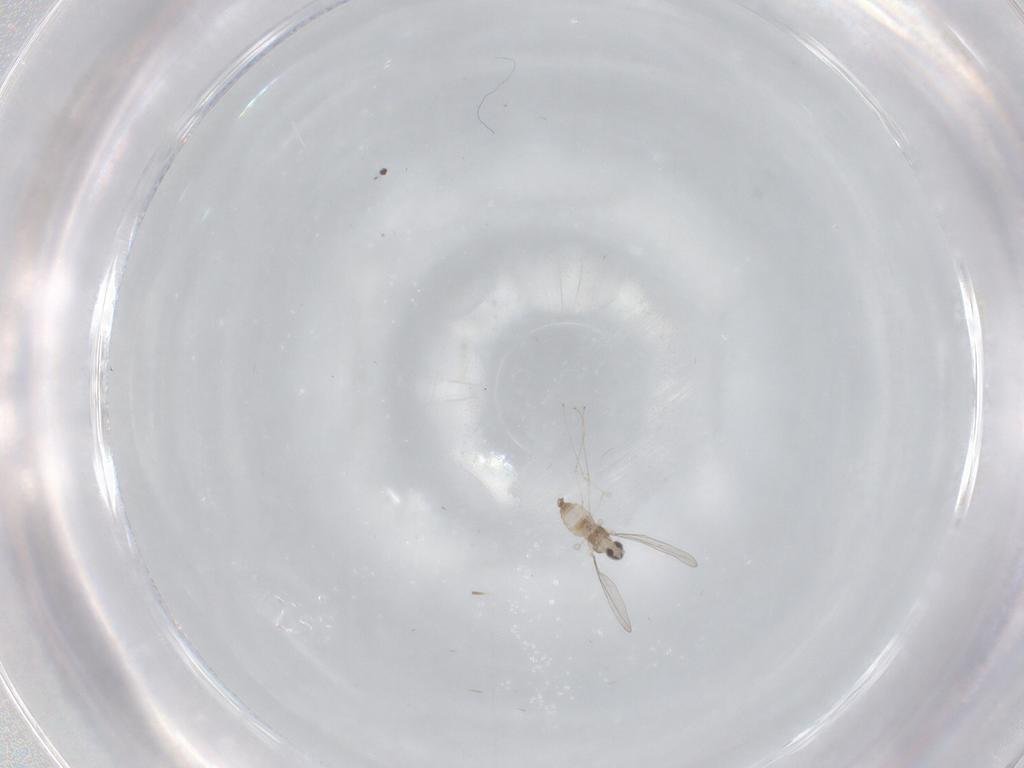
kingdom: Animalia
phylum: Arthropoda
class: Insecta
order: Diptera
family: Cecidomyiidae
